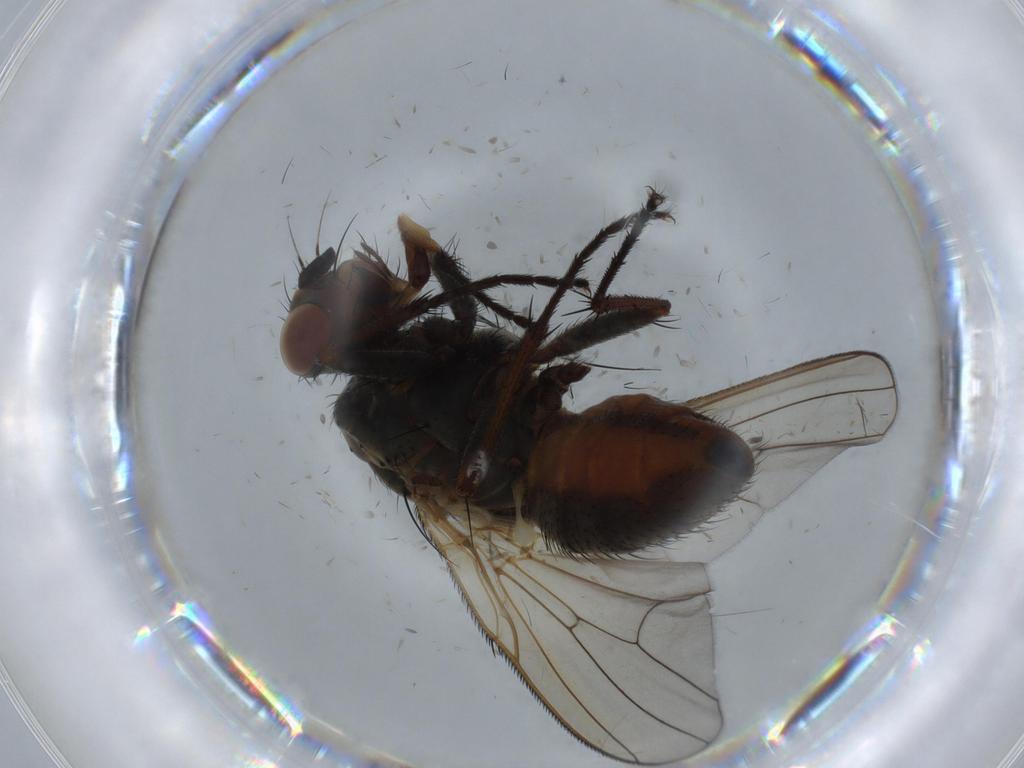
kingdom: Animalia
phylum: Arthropoda
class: Insecta
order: Diptera
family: Anthomyiidae
